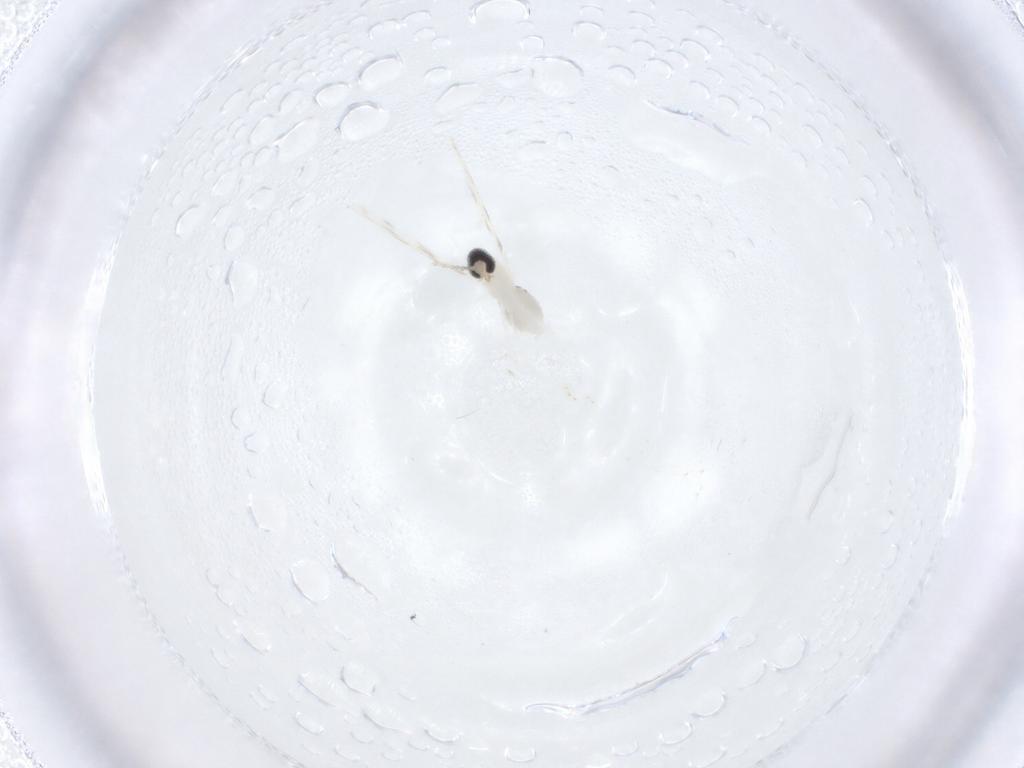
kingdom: Animalia
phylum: Arthropoda
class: Insecta
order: Diptera
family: Cecidomyiidae
